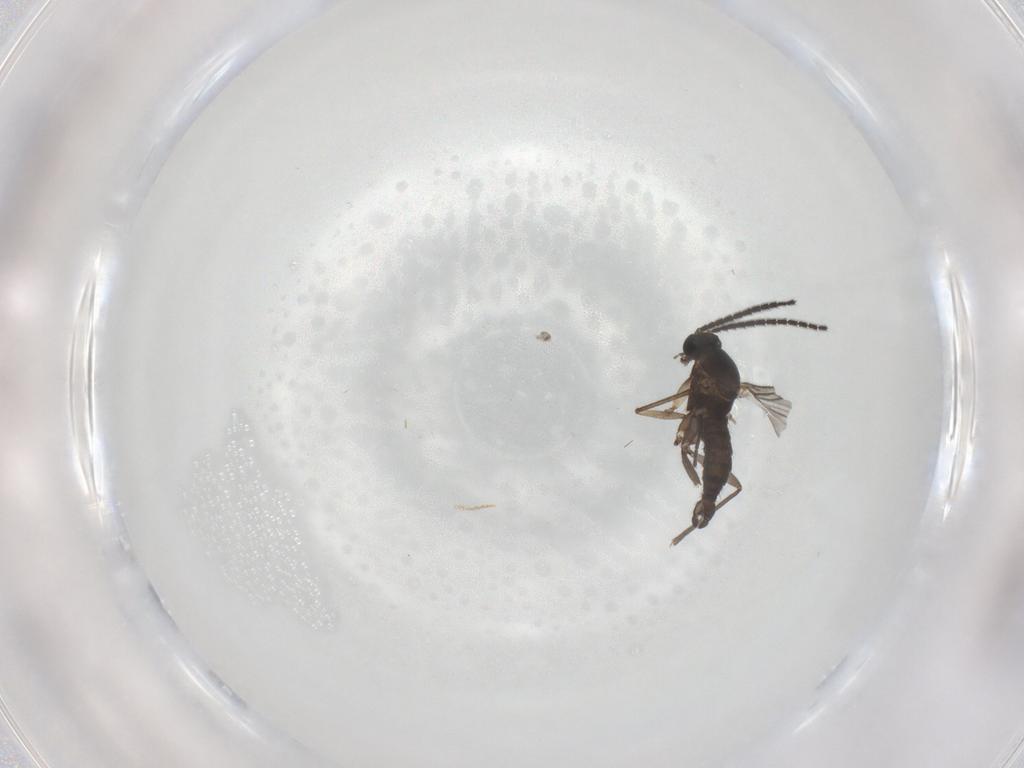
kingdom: Animalia
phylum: Arthropoda
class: Insecta
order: Diptera
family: Sciaridae
